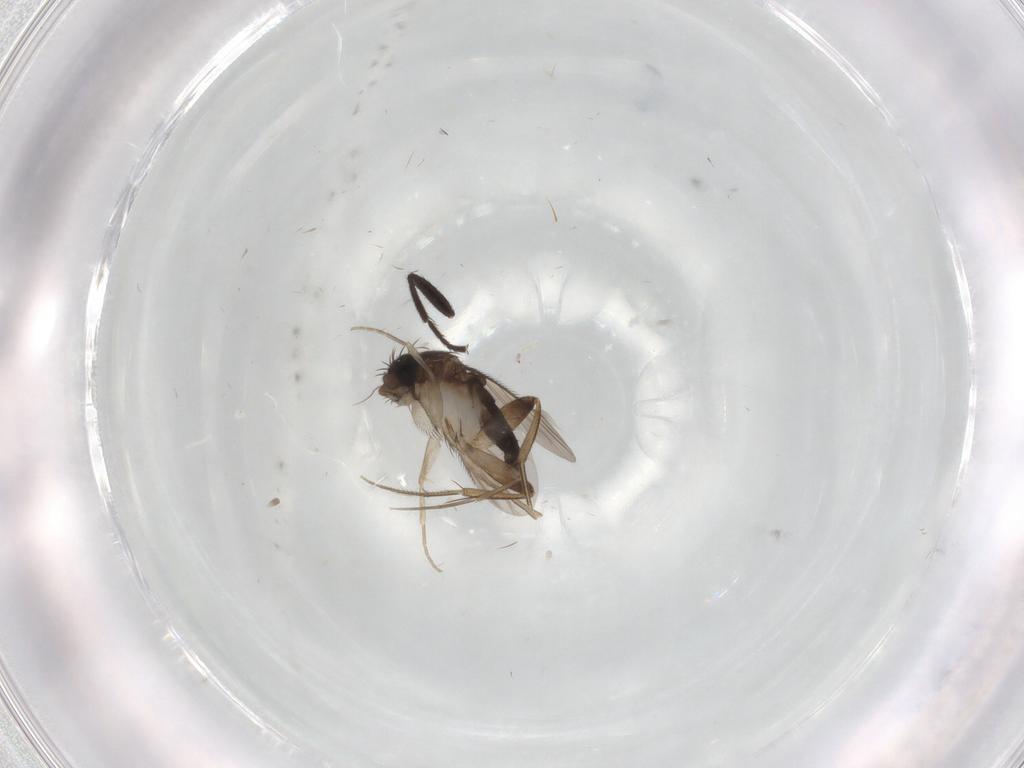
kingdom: Animalia
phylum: Arthropoda
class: Insecta
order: Diptera
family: Phoridae
